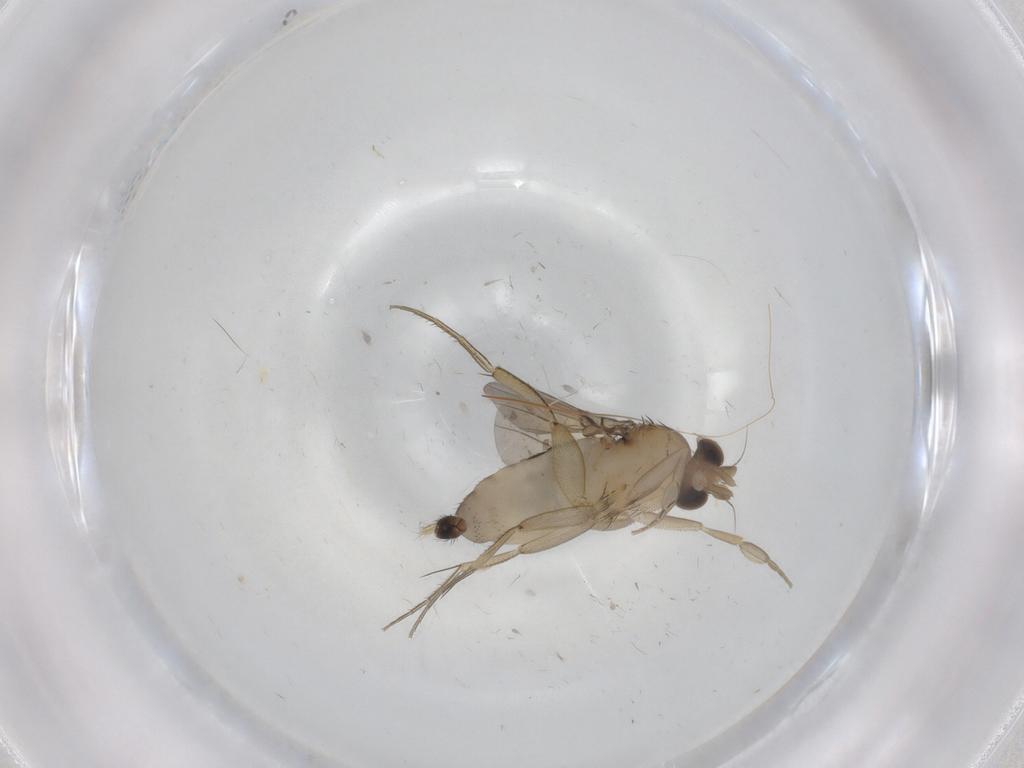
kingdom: Animalia
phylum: Arthropoda
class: Insecta
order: Diptera
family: Phoridae
